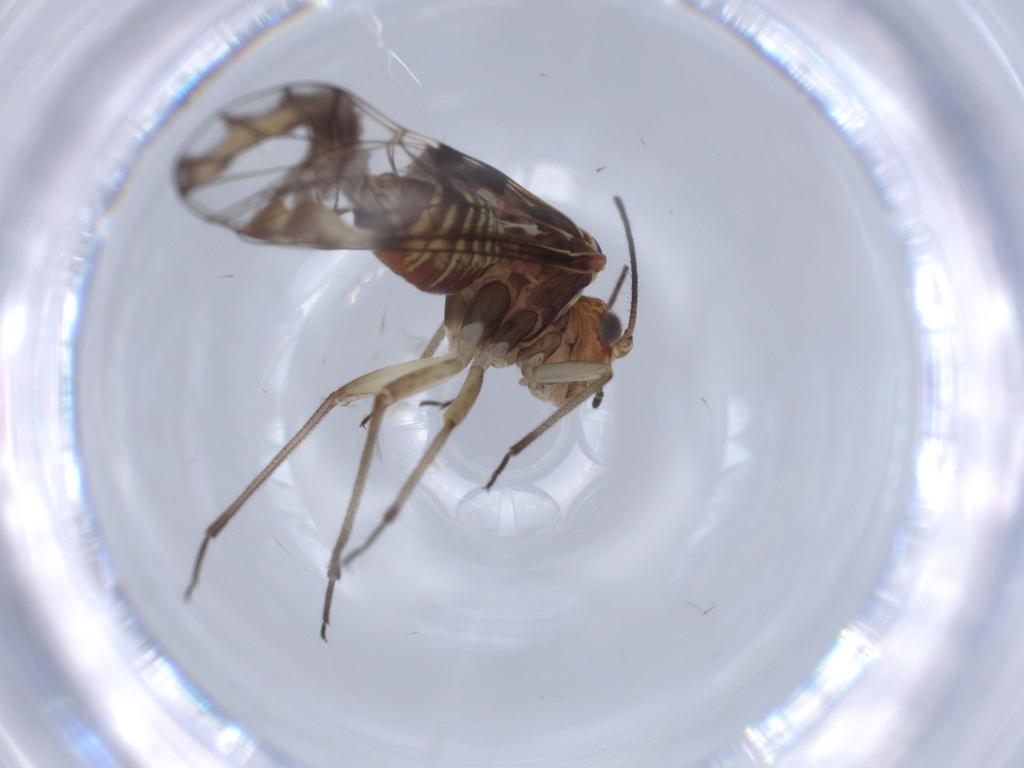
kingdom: Animalia
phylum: Arthropoda
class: Insecta
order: Psocodea
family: Psocidae
